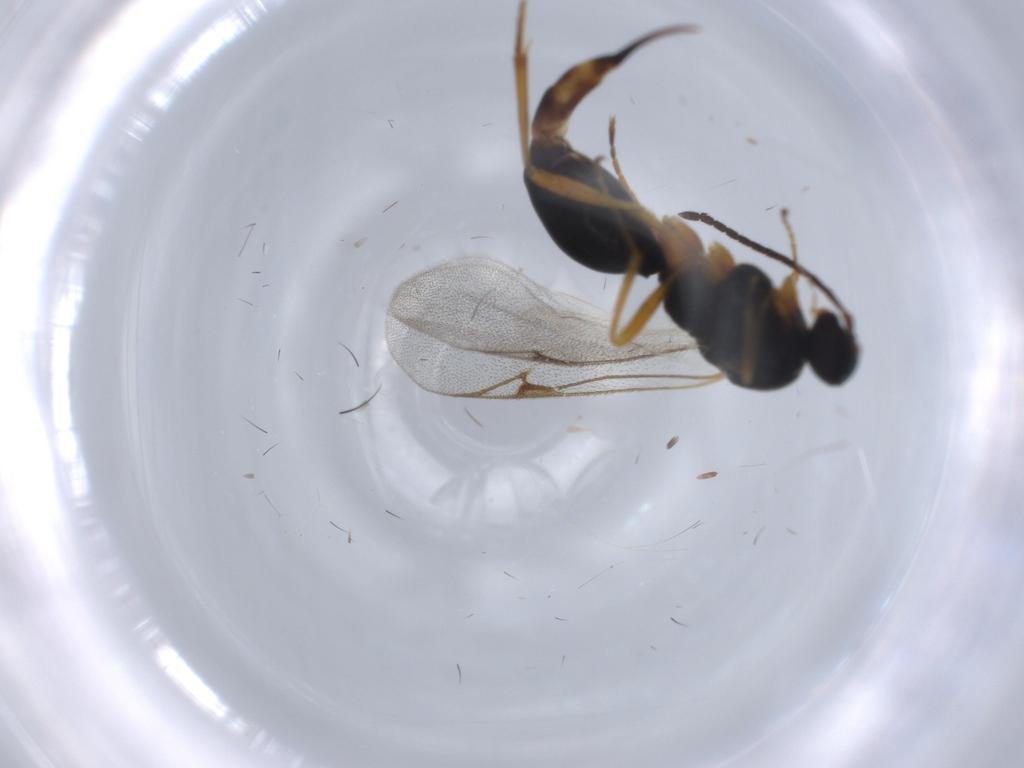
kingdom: Animalia
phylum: Arthropoda
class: Insecta
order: Hymenoptera
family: Proctotrupidae
